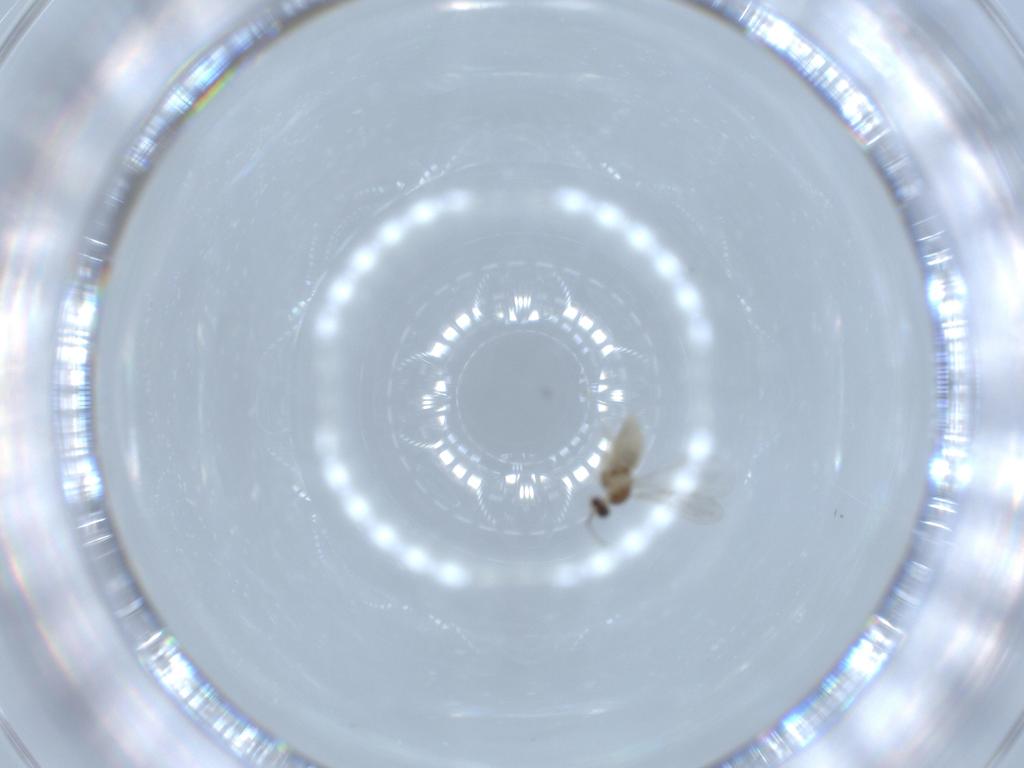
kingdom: Animalia
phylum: Arthropoda
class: Insecta
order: Diptera
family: Cecidomyiidae
